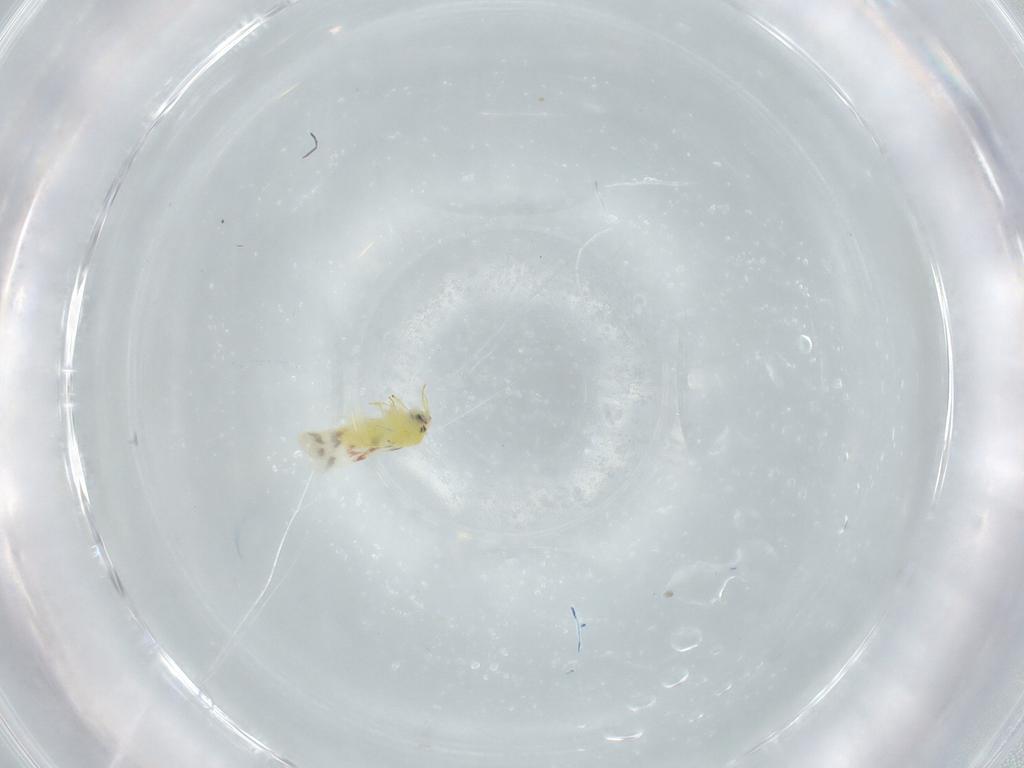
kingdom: Animalia
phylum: Arthropoda
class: Insecta
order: Hemiptera
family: Aleyrodidae
